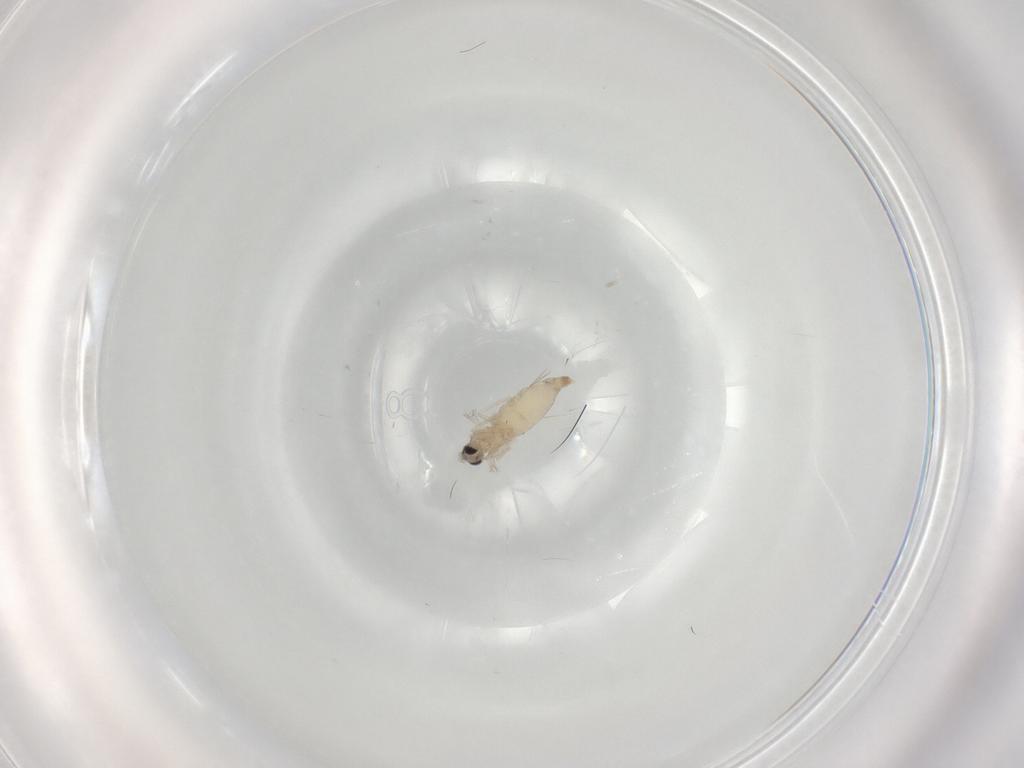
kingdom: Animalia
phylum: Arthropoda
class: Insecta
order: Diptera
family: Cecidomyiidae
